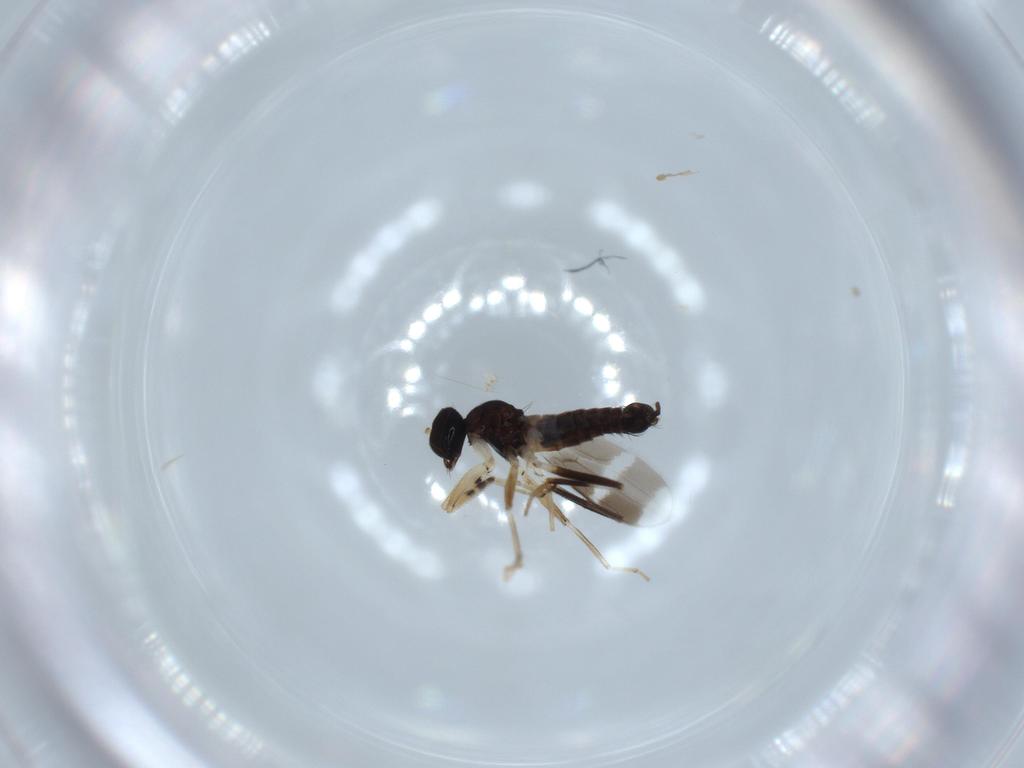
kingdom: Animalia
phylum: Arthropoda
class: Insecta
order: Diptera
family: Hybotidae
